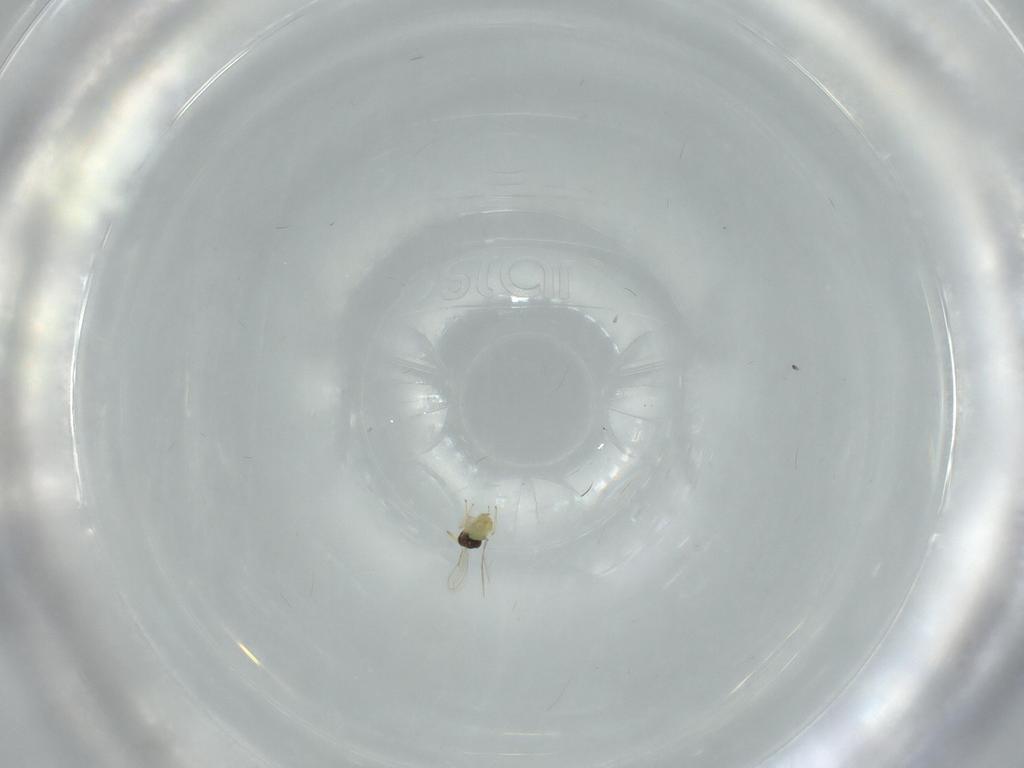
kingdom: Animalia
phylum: Arthropoda
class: Insecta
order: Hymenoptera
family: Aphelinidae
